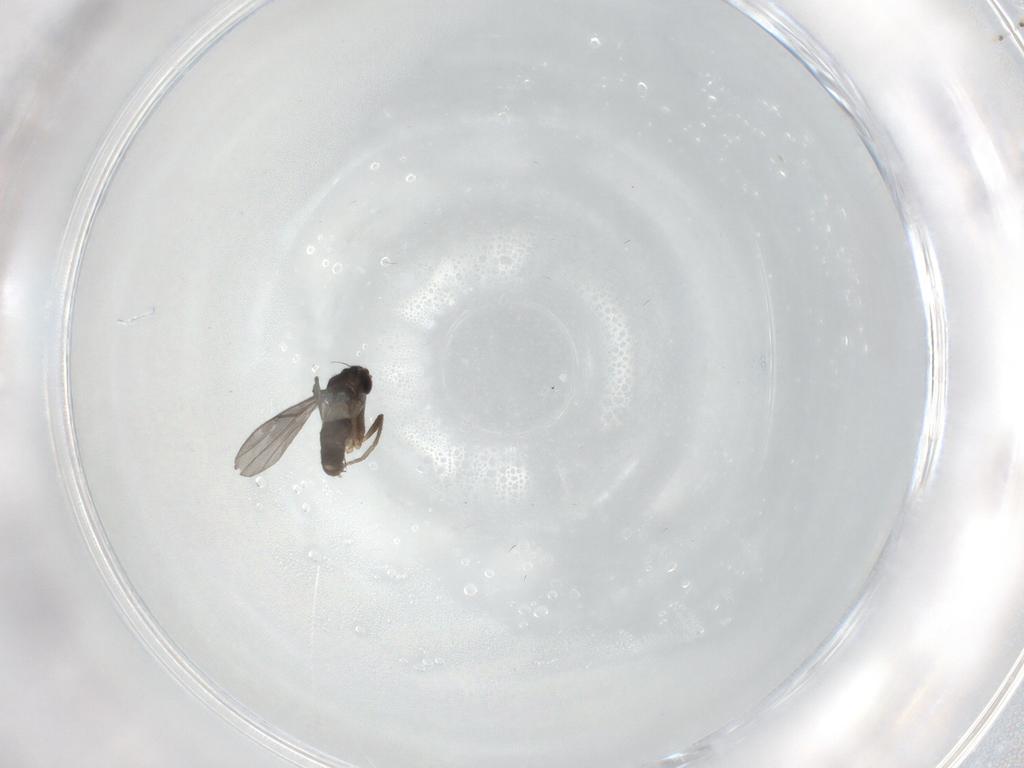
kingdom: Animalia
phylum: Arthropoda
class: Insecta
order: Diptera
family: Phoridae
